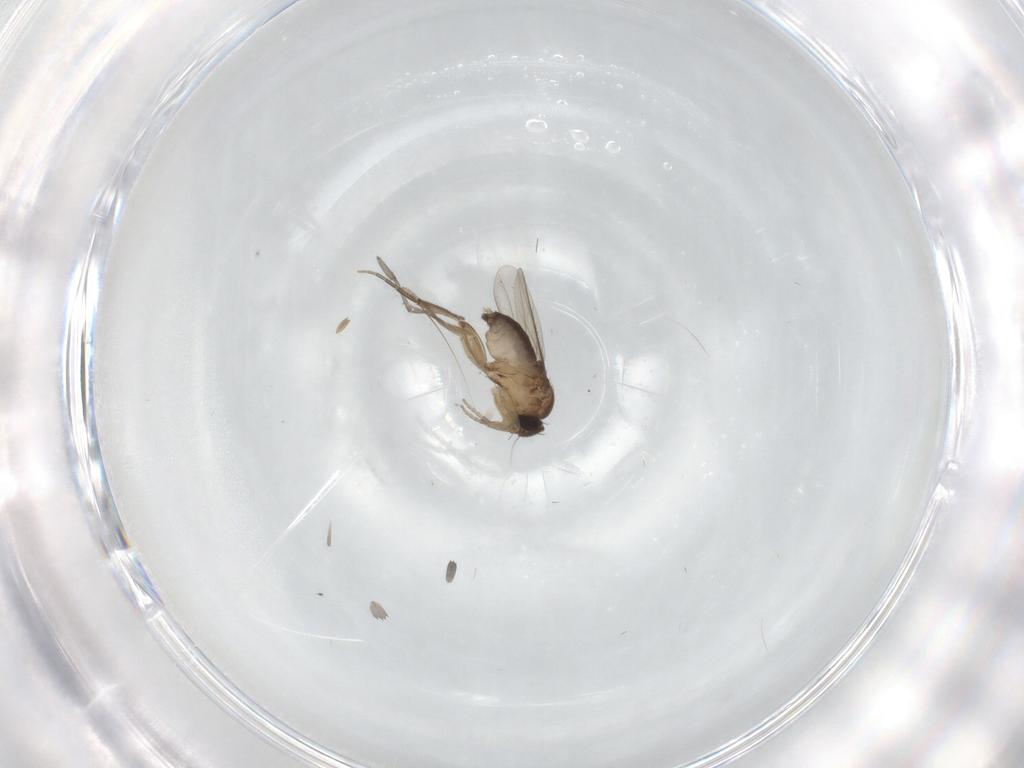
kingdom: Animalia
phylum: Arthropoda
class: Insecta
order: Diptera
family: Sciaridae
